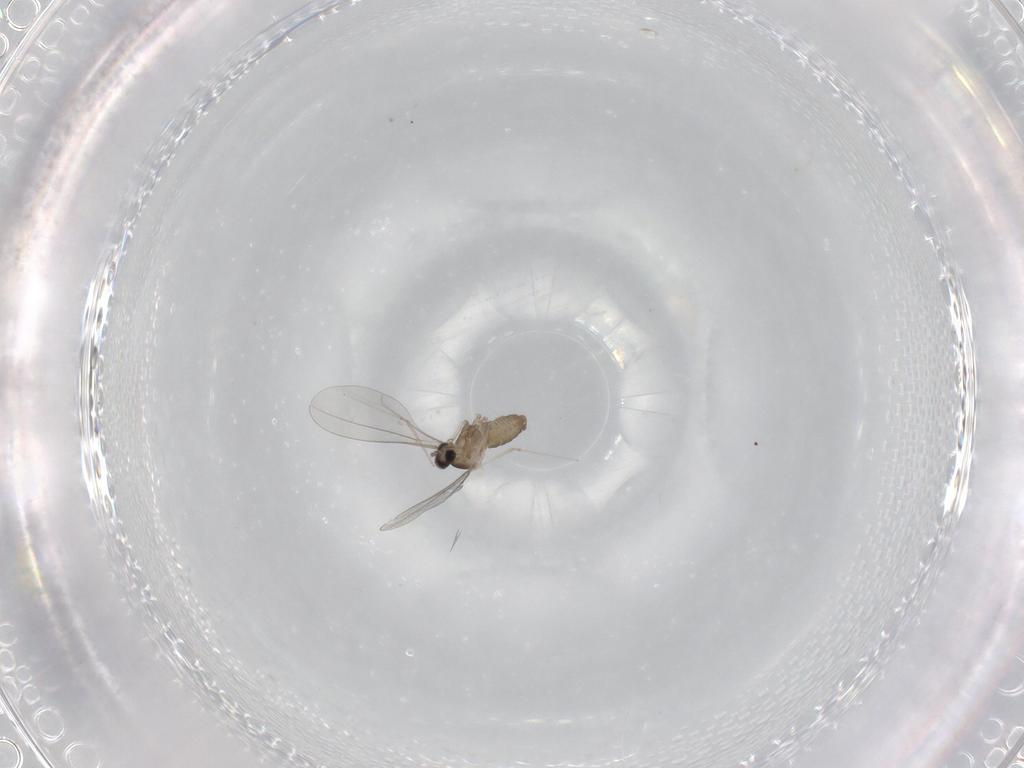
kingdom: Animalia
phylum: Arthropoda
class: Insecta
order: Diptera
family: Cecidomyiidae
